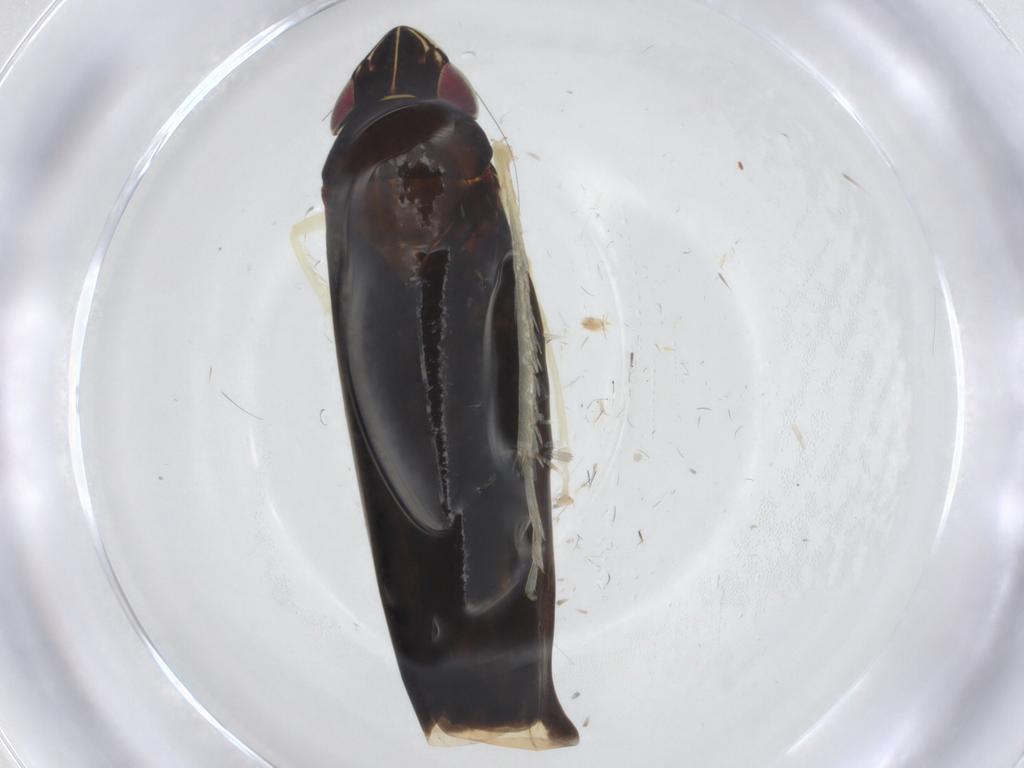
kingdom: Animalia
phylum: Arthropoda
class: Insecta
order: Hemiptera
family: Cicadellidae
